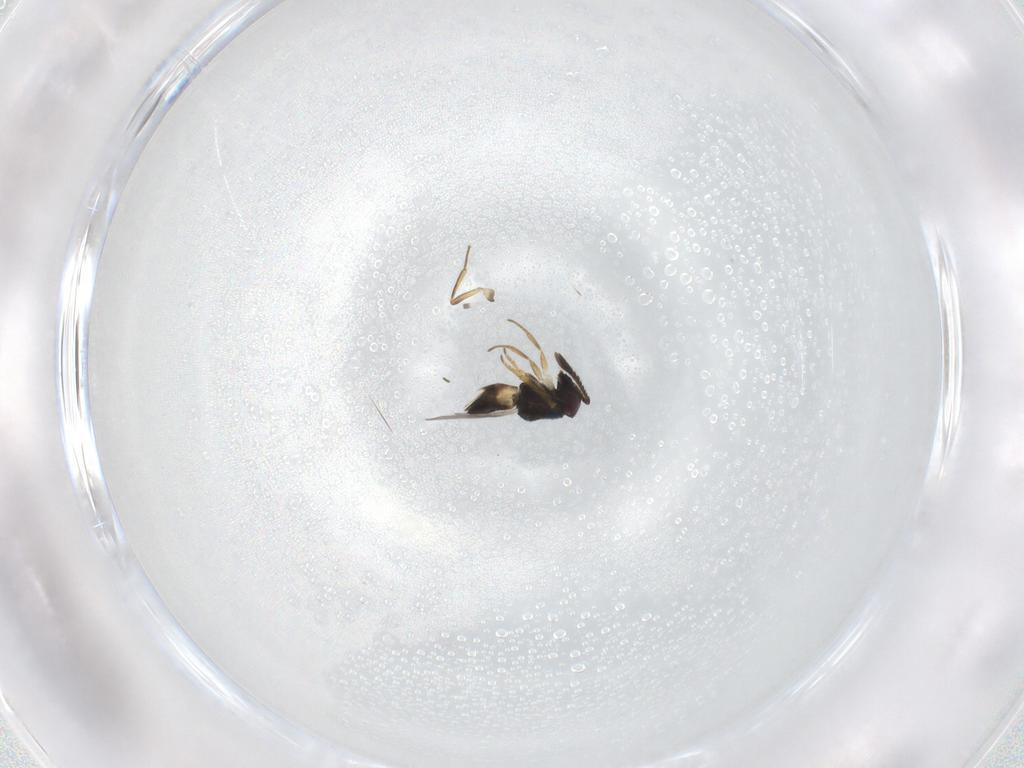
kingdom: Animalia
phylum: Arthropoda
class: Insecta
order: Hymenoptera
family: Encyrtidae
